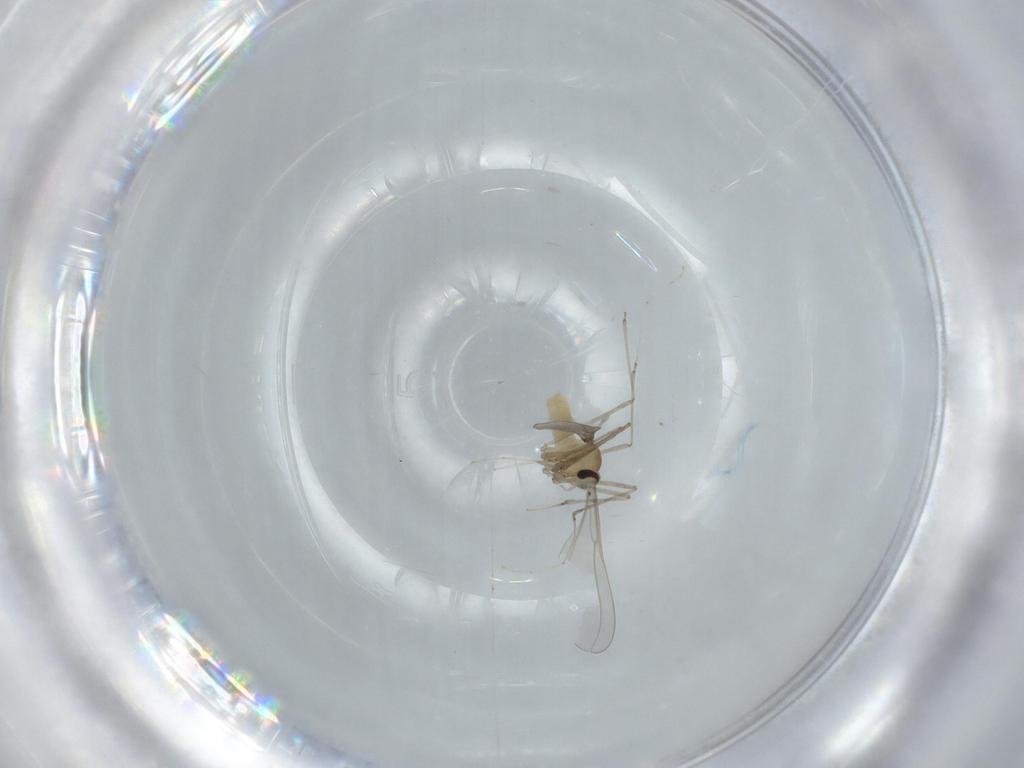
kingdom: Animalia
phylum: Arthropoda
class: Insecta
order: Diptera
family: Cecidomyiidae
